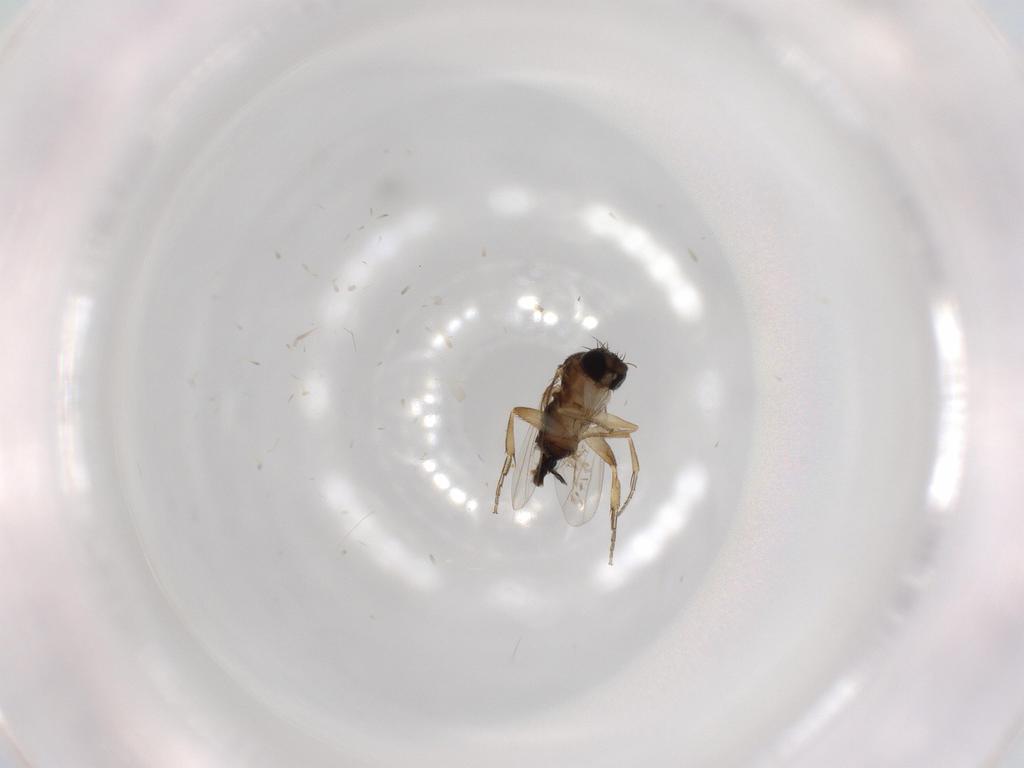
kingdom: Animalia
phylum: Arthropoda
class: Insecta
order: Diptera
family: Phoridae
